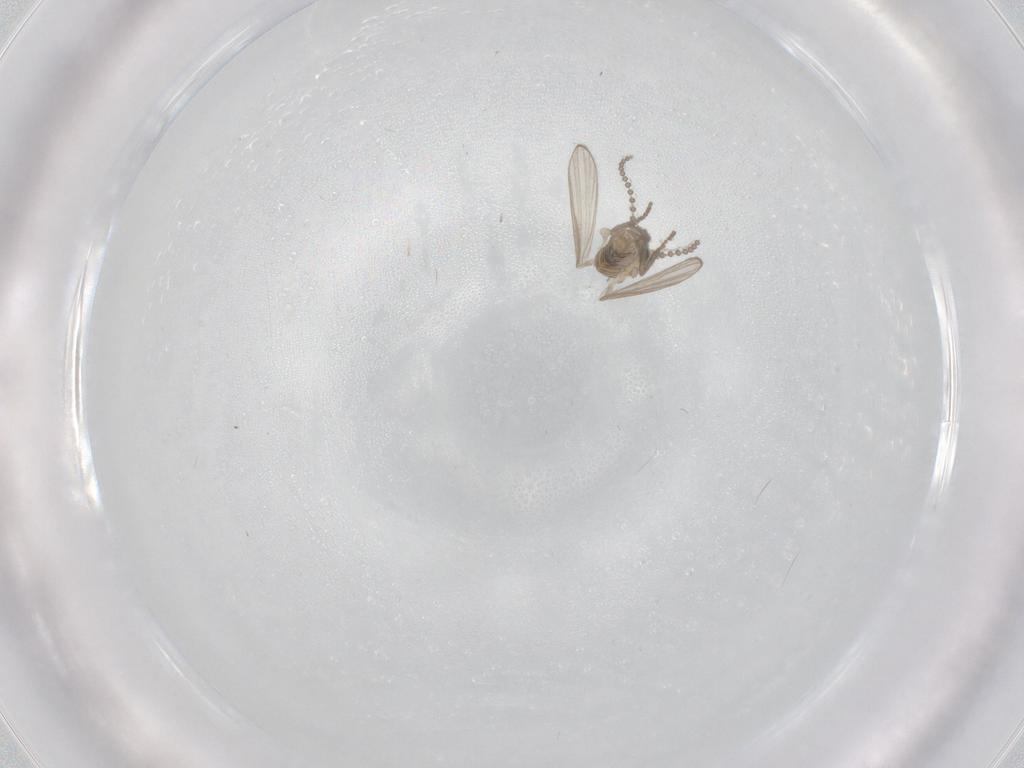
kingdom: Animalia
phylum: Arthropoda
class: Insecta
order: Diptera
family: Psychodidae
